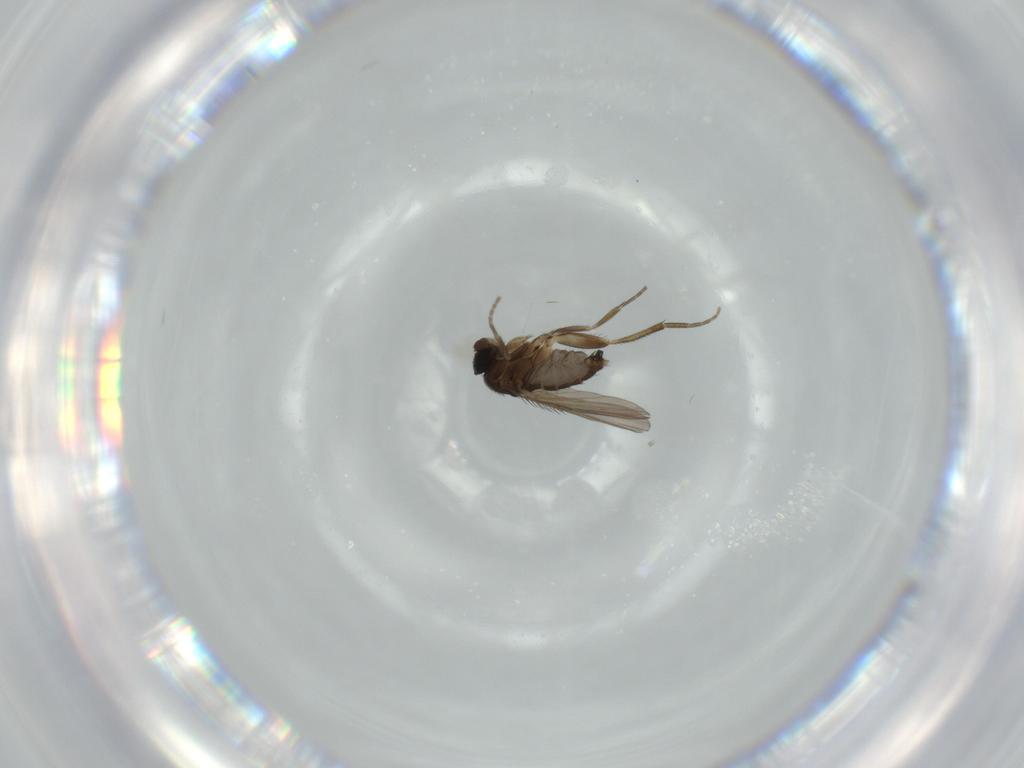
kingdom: Animalia
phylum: Arthropoda
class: Insecta
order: Diptera
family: Phoridae
